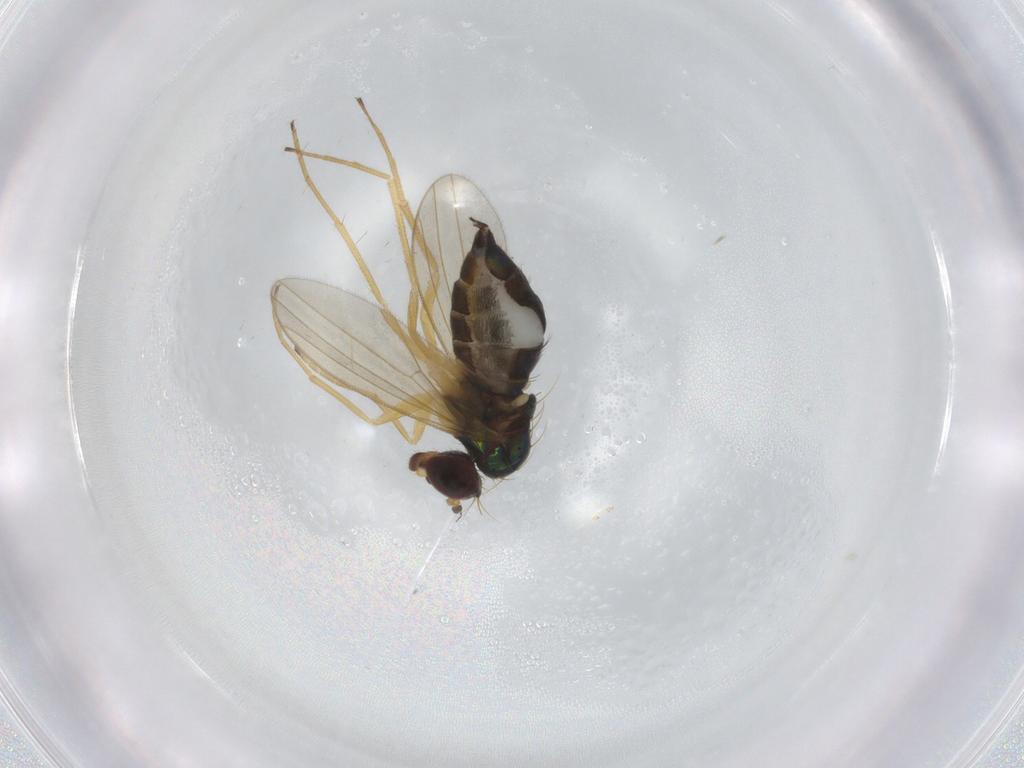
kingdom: Animalia
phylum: Arthropoda
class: Insecta
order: Diptera
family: Dolichopodidae
